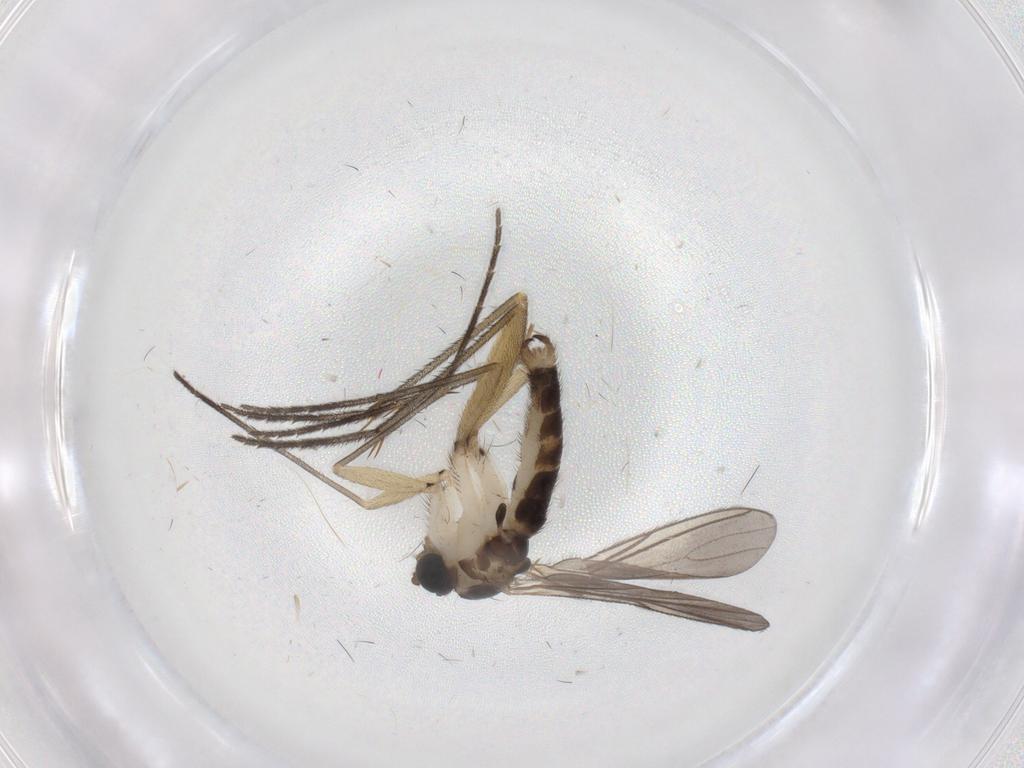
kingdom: Animalia
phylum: Arthropoda
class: Insecta
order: Diptera
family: Sciaridae
